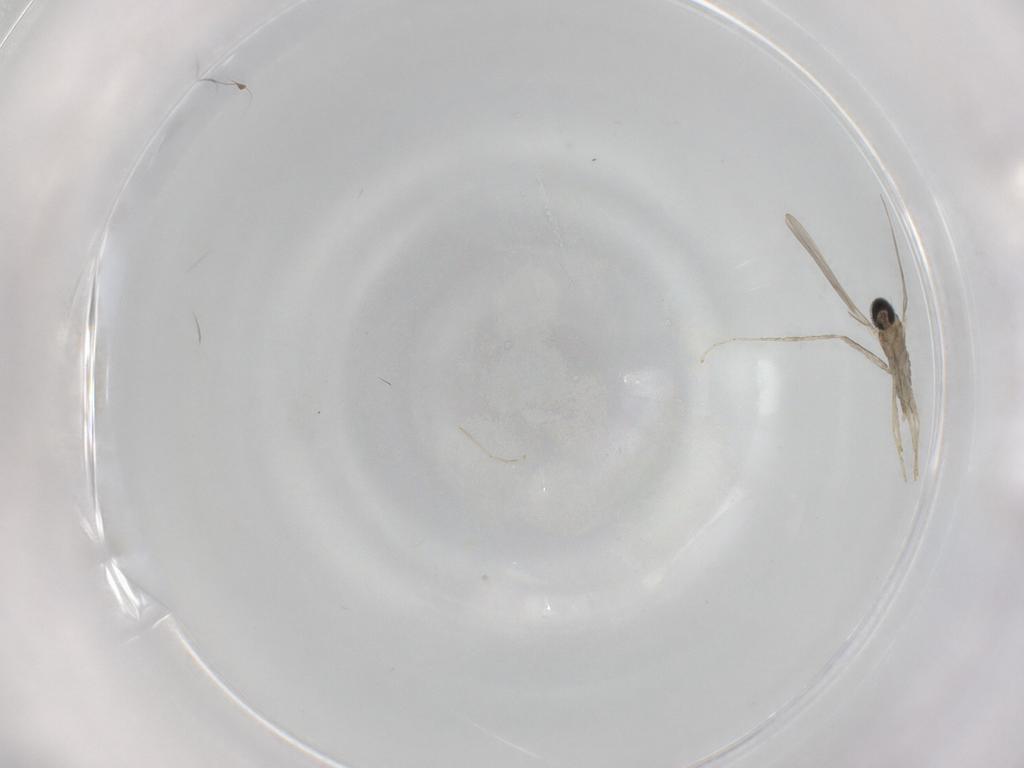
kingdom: Animalia
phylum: Arthropoda
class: Insecta
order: Diptera
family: Cecidomyiidae
